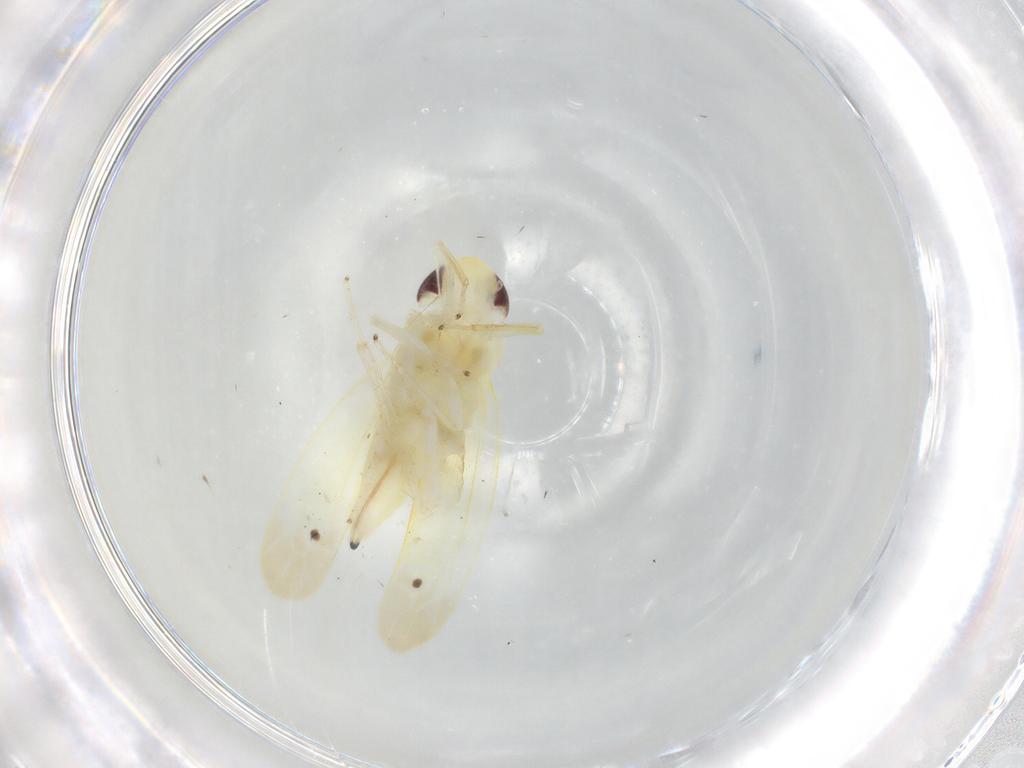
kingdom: Animalia
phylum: Arthropoda
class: Insecta
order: Hemiptera
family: Cicadellidae
